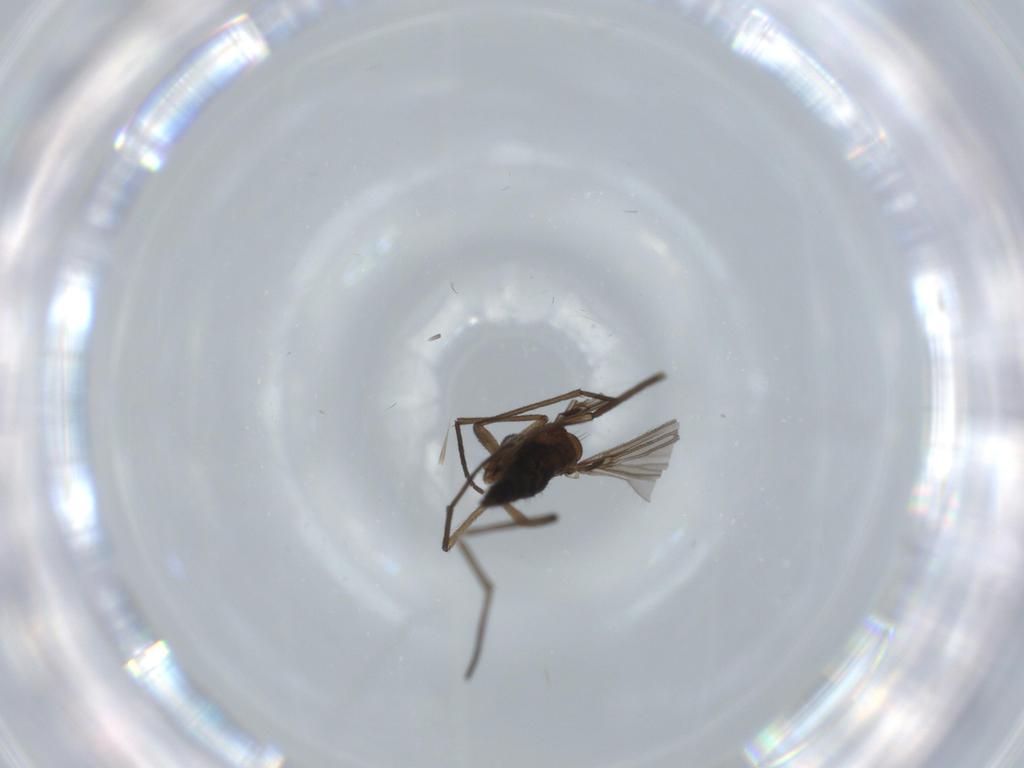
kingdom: Animalia
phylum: Arthropoda
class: Insecta
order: Diptera
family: Sciaridae
